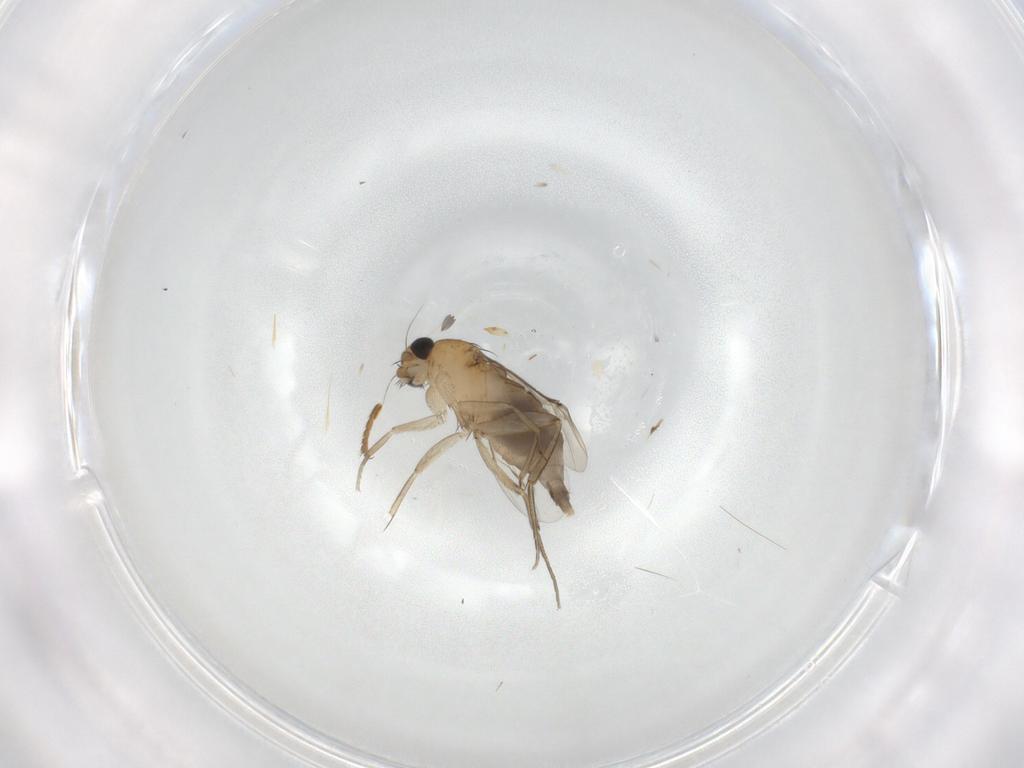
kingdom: Animalia
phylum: Arthropoda
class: Insecta
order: Diptera
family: Phoridae
